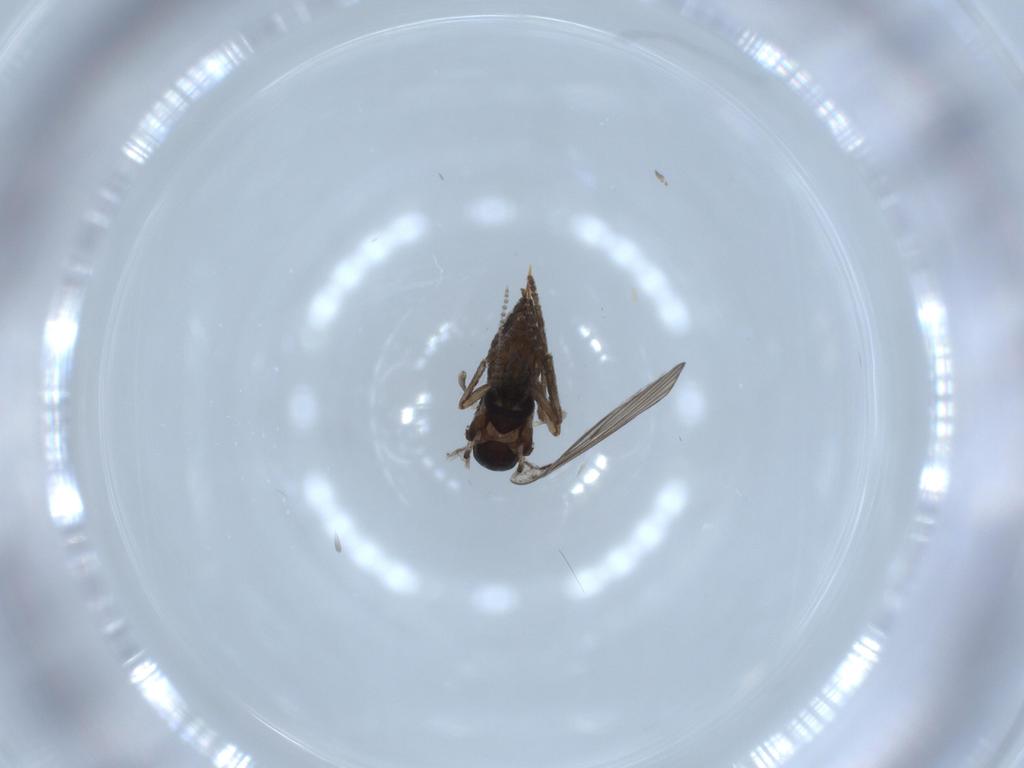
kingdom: Animalia
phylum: Arthropoda
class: Insecta
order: Diptera
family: Psychodidae
